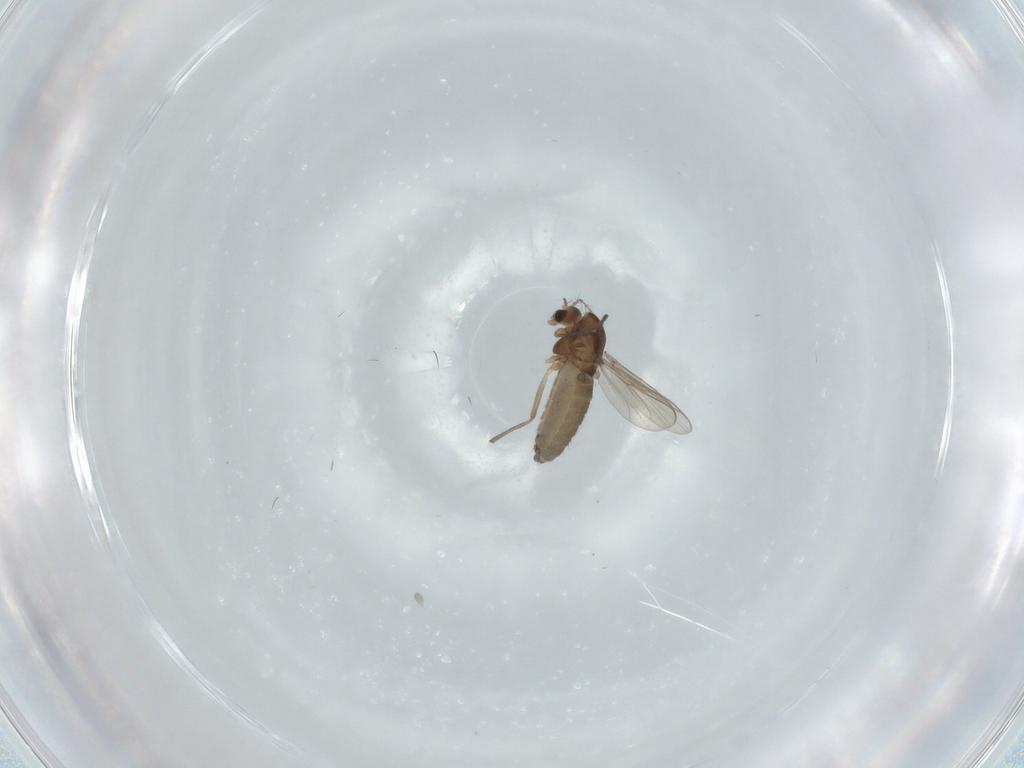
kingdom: Animalia
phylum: Arthropoda
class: Insecta
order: Diptera
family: Chironomidae
